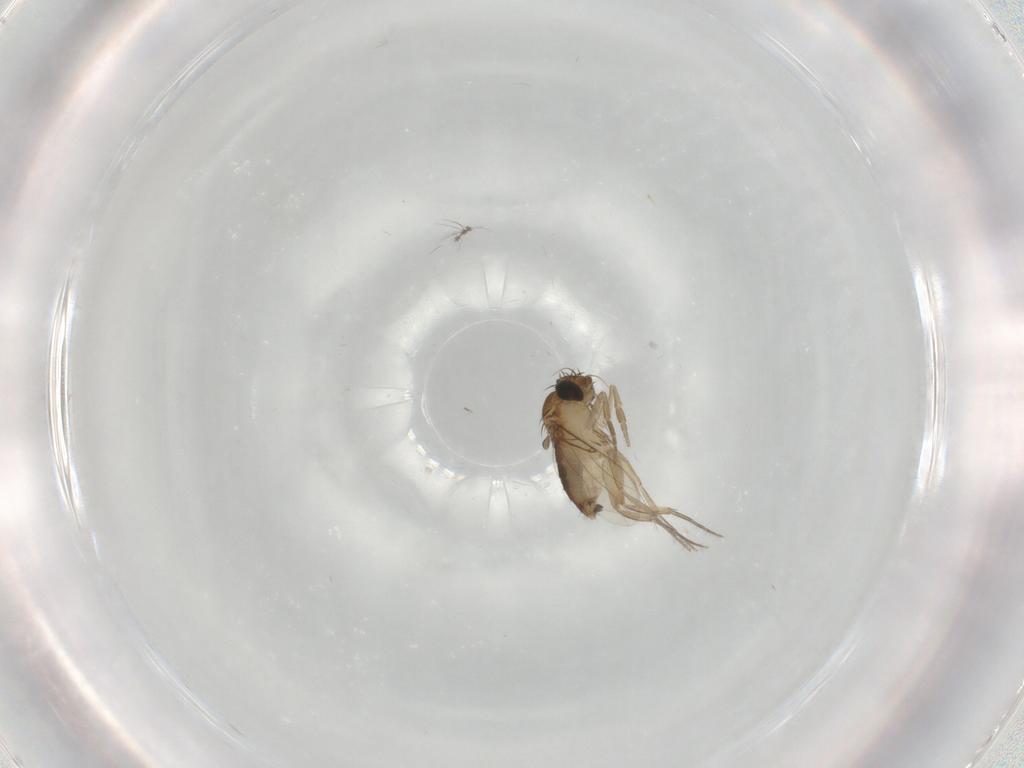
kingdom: Animalia
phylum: Arthropoda
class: Insecta
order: Diptera
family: Phoridae
